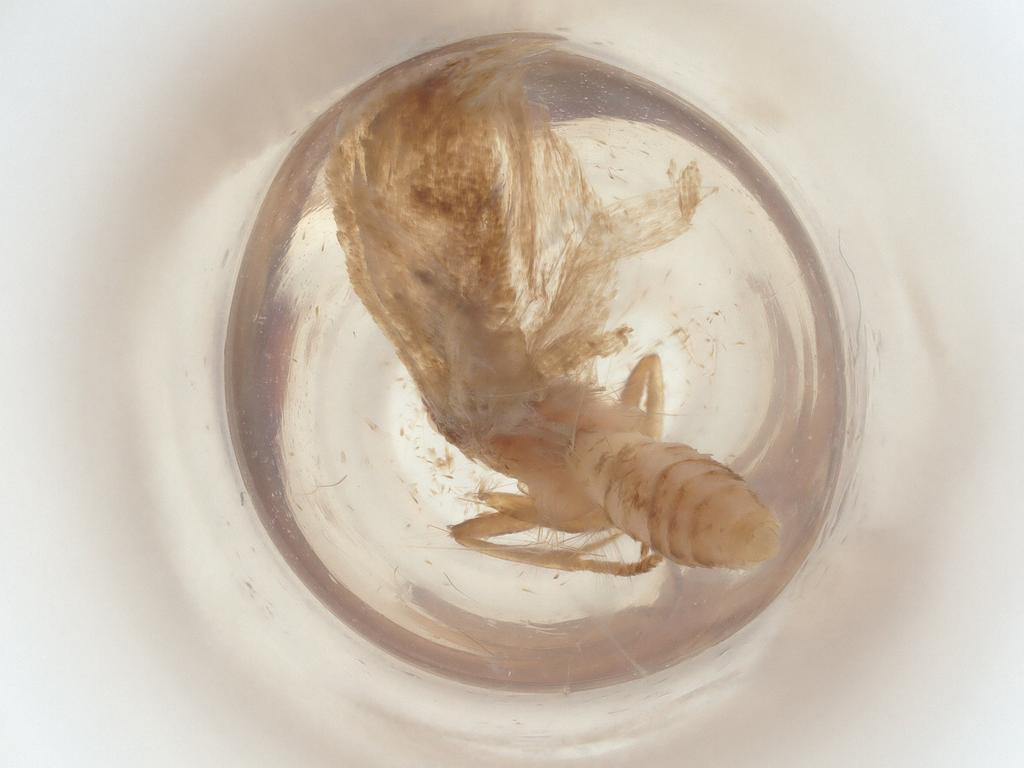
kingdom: Animalia
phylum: Arthropoda
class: Insecta
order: Lepidoptera
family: Gelechiidae
